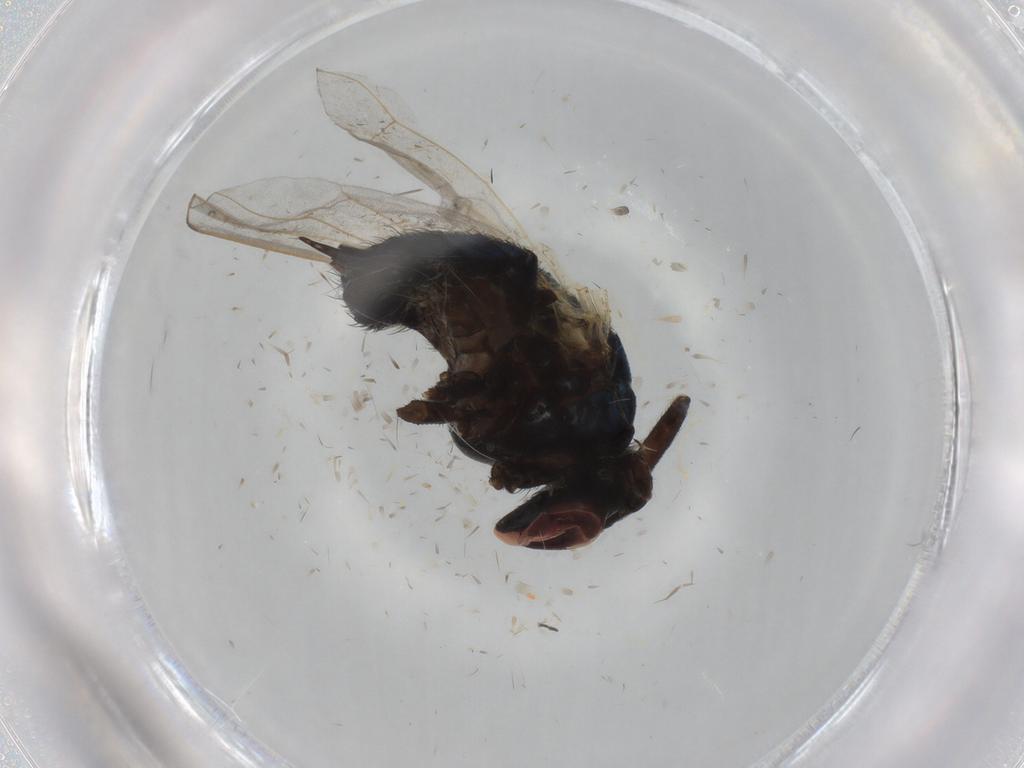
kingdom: Animalia
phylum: Arthropoda
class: Insecta
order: Diptera
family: Lonchaeidae
